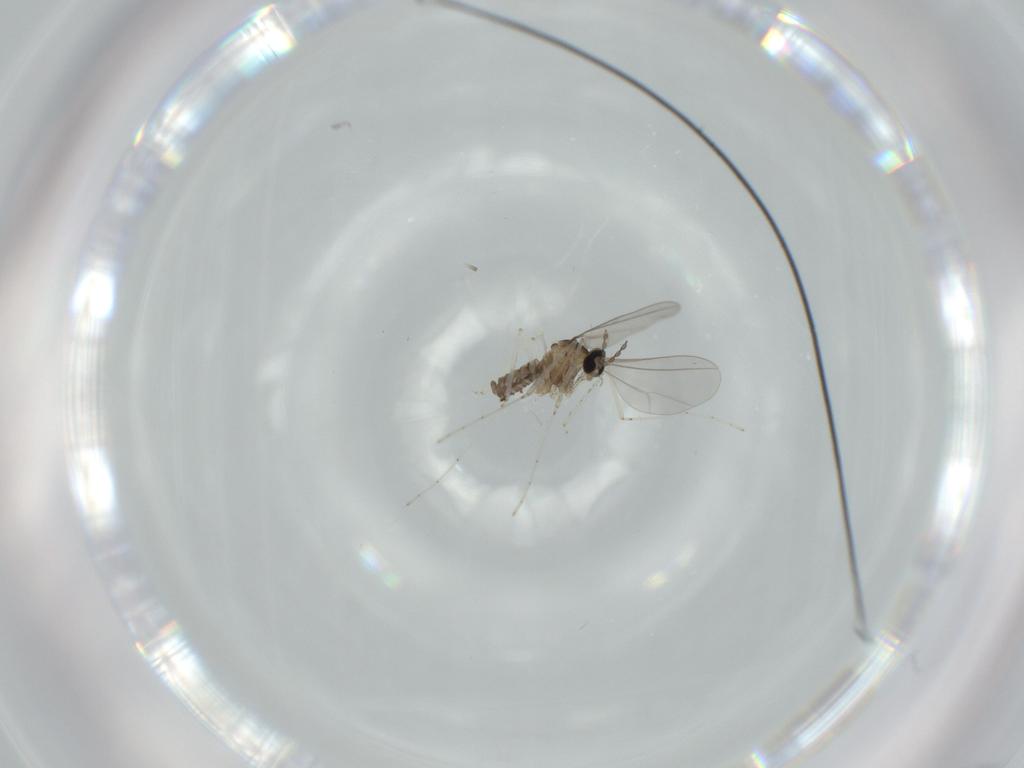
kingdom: Animalia
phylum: Arthropoda
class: Insecta
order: Diptera
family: Cecidomyiidae
